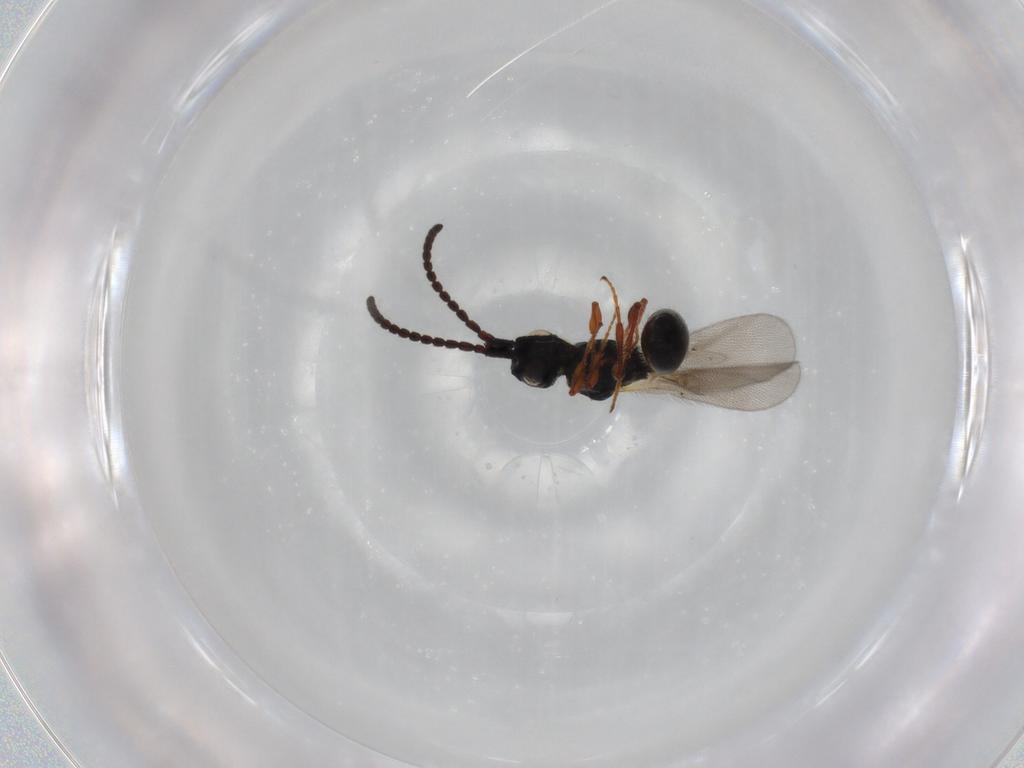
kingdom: Animalia
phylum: Arthropoda
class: Insecta
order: Hymenoptera
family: Diapriidae
